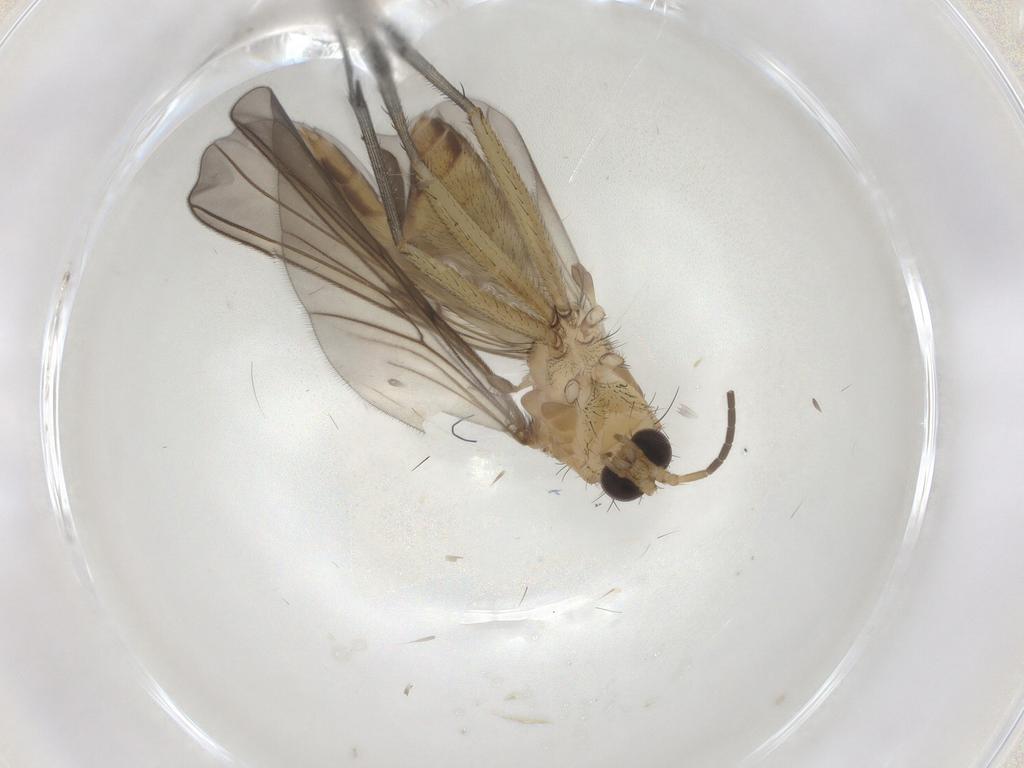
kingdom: Animalia
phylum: Arthropoda
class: Insecta
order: Diptera
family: Mycetophilidae
